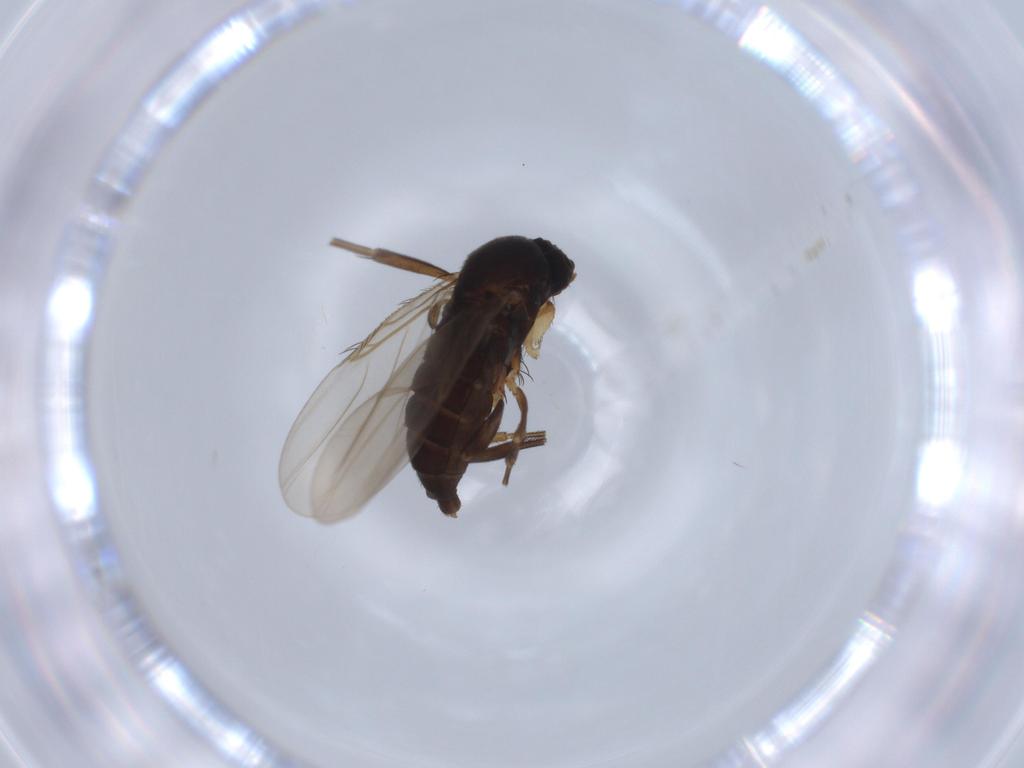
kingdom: Animalia
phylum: Arthropoda
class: Insecta
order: Diptera
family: Phoridae
